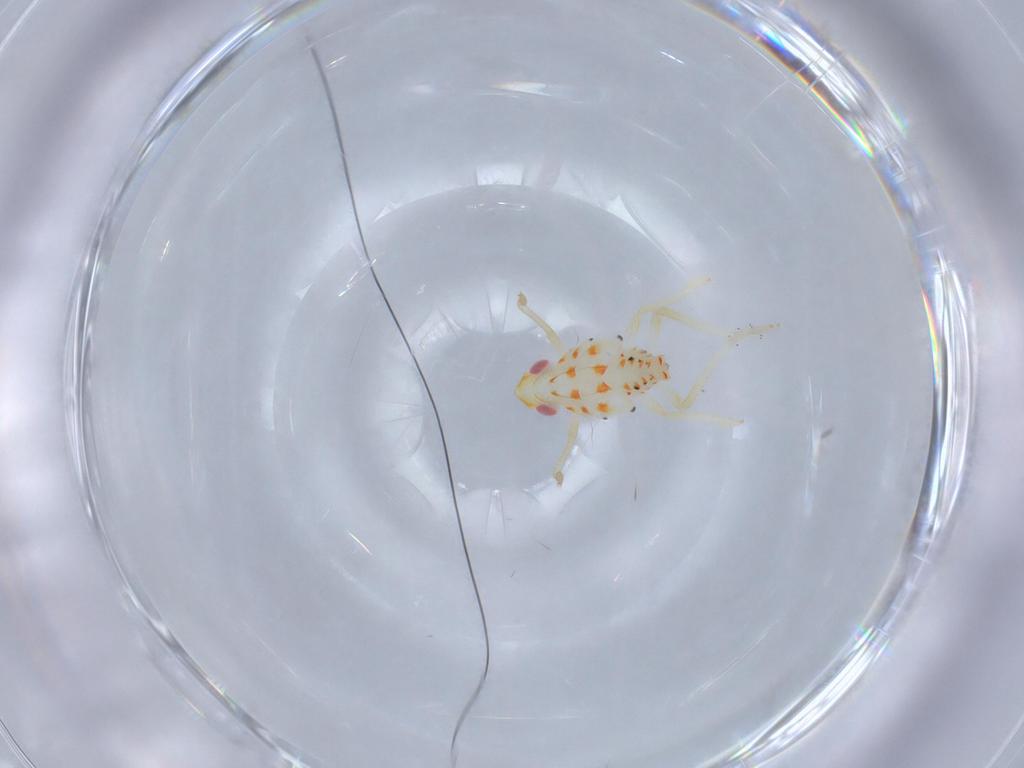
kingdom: Animalia
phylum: Arthropoda
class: Insecta
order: Hemiptera
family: Tropiduchidae
